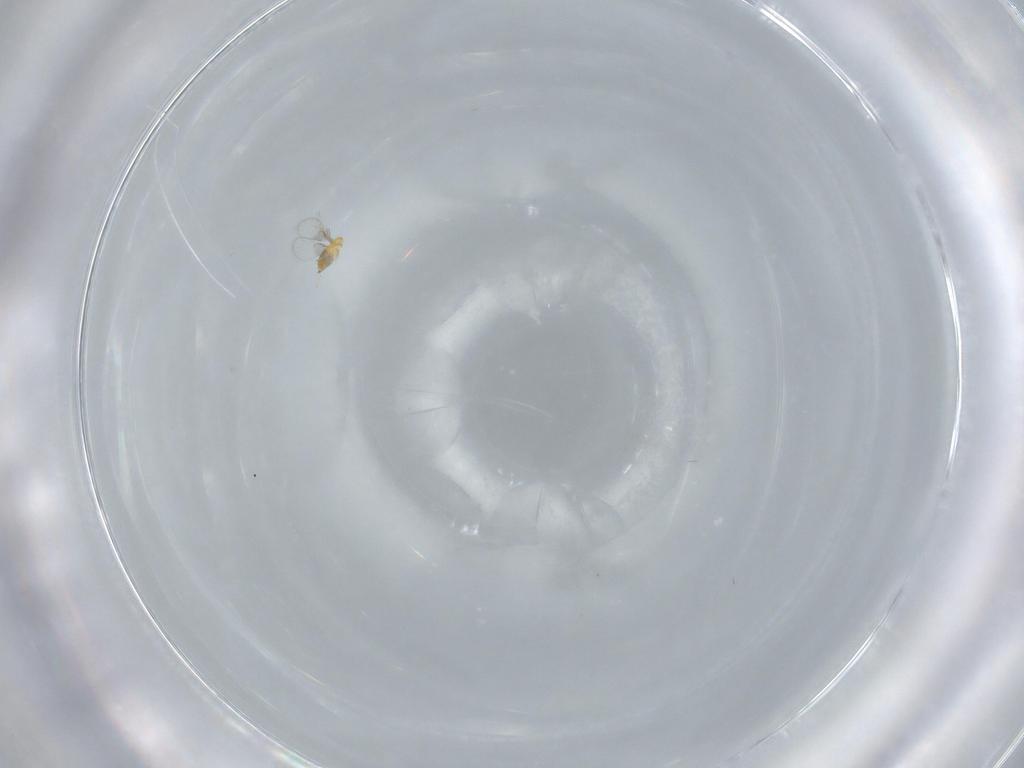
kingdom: Animalia
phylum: Arthropoda
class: Insecta
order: Hymenoptera
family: Trichogrammatidae
